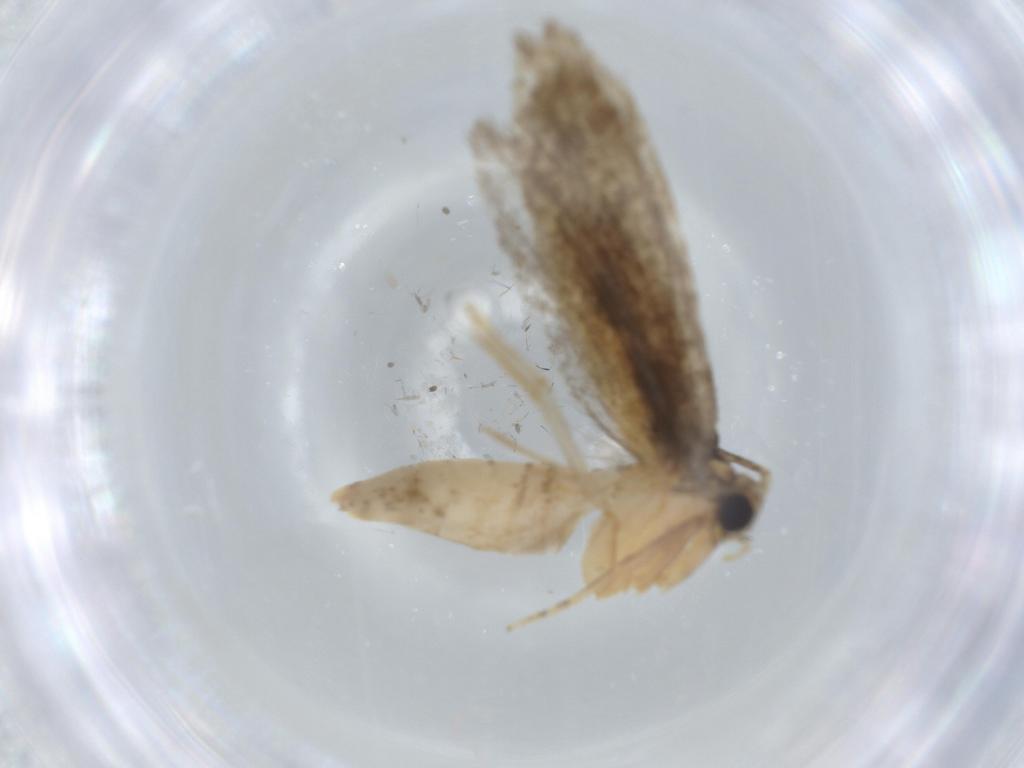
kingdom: Animalia
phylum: Arthropoda
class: Insecta
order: Lepidoptera
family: Tineidae
